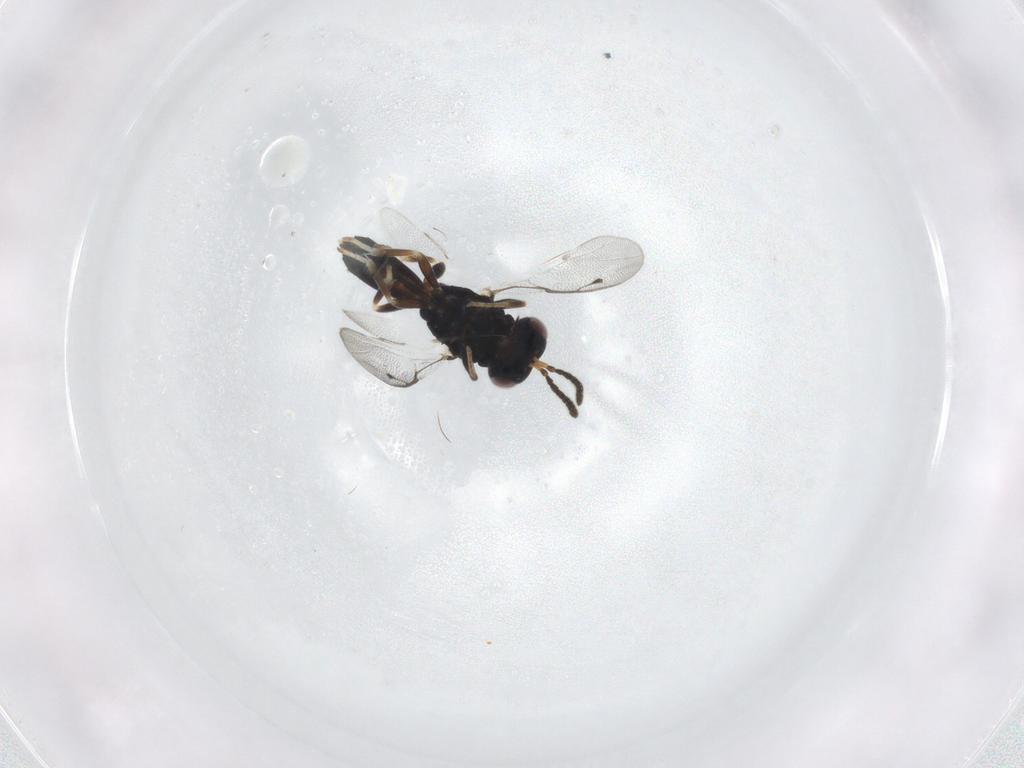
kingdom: Animalia
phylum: Arthropoda
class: Insecta
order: Hymenoptera
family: Pteromalidae
